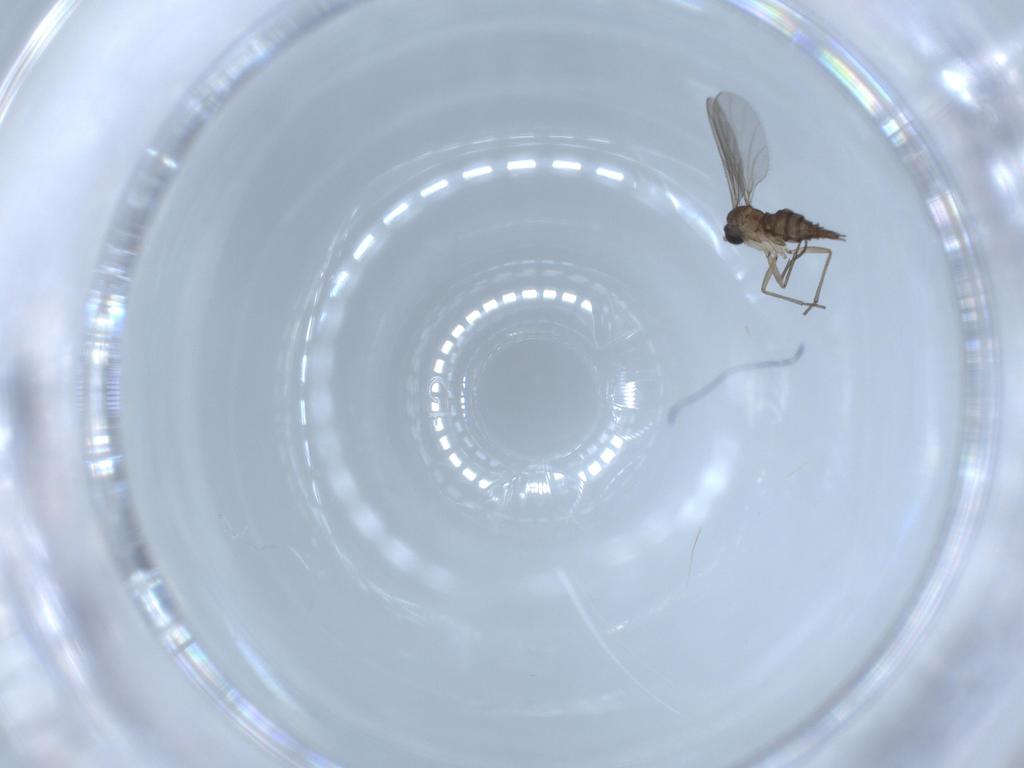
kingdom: Animalia
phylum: Arthropoda
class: Insecta
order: Diptera
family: Sciaridae
